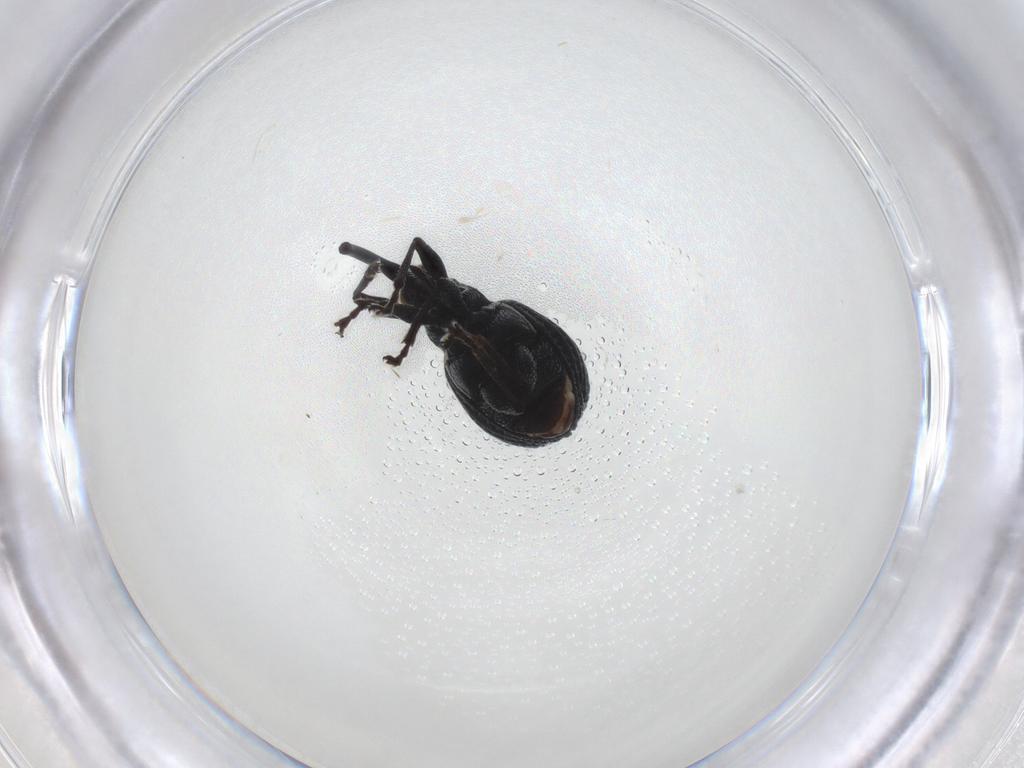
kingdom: Animalia
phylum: Arthropoda
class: Insecta
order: Coleoptera
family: Brentidae
